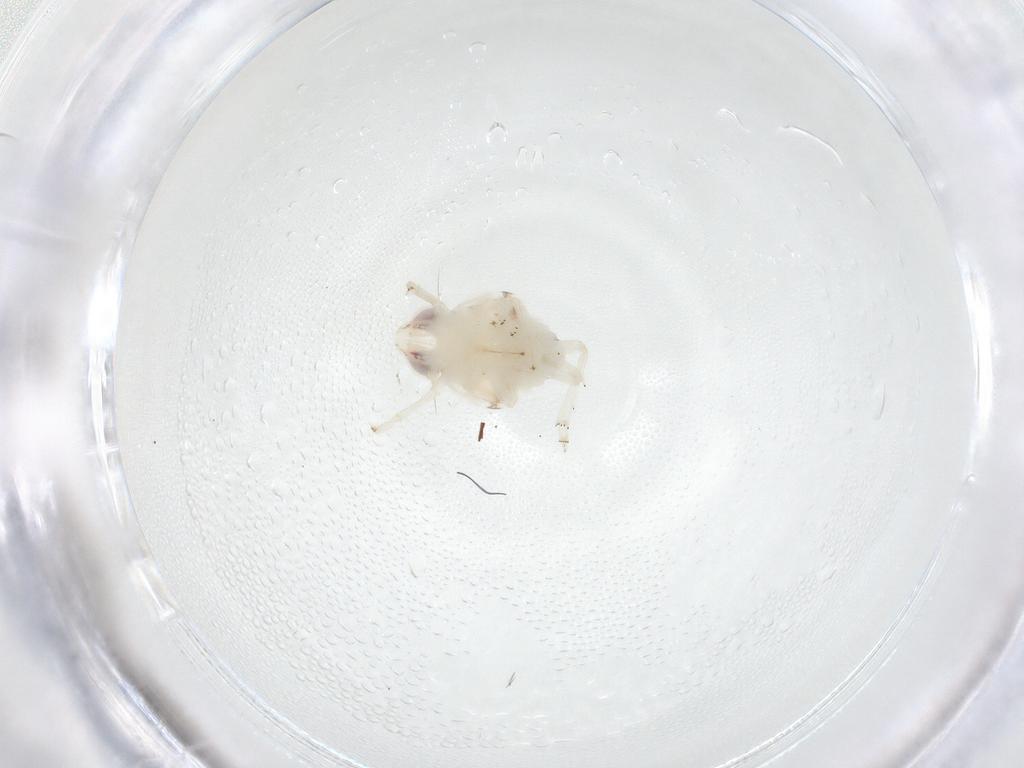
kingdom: Animalia
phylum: Arthropoda
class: Insecta
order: Hemiptera
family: Nogodinidae
